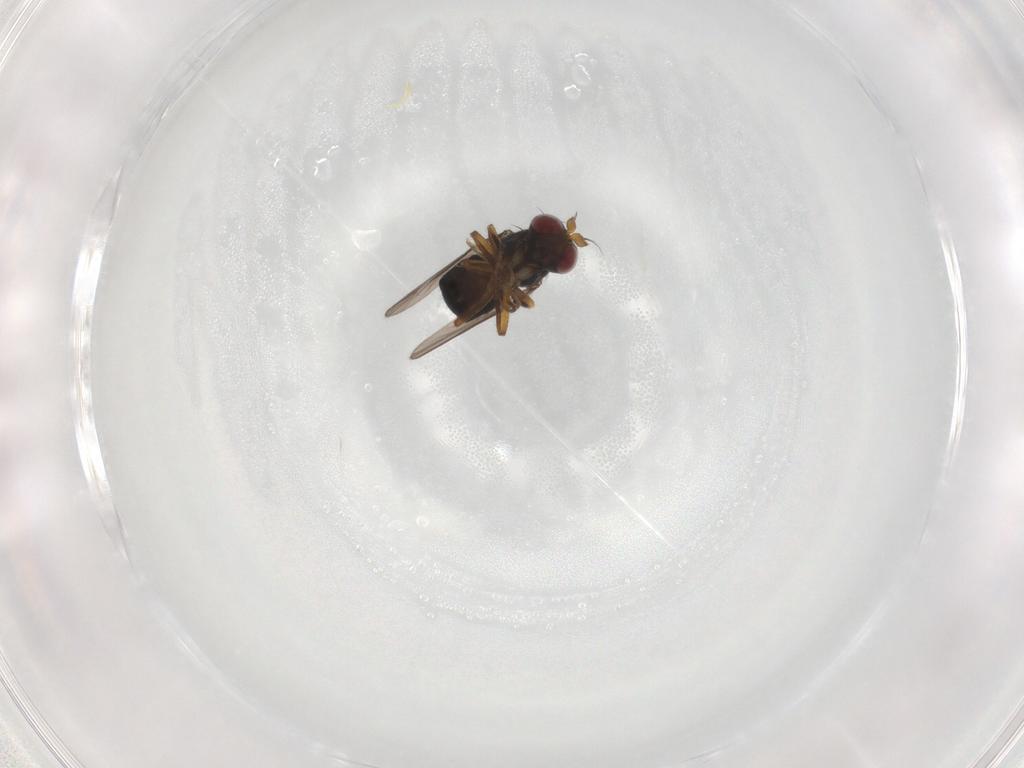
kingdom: Animalia
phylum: Arthropoda
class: Insecta
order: Diptera
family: Ephydridae
